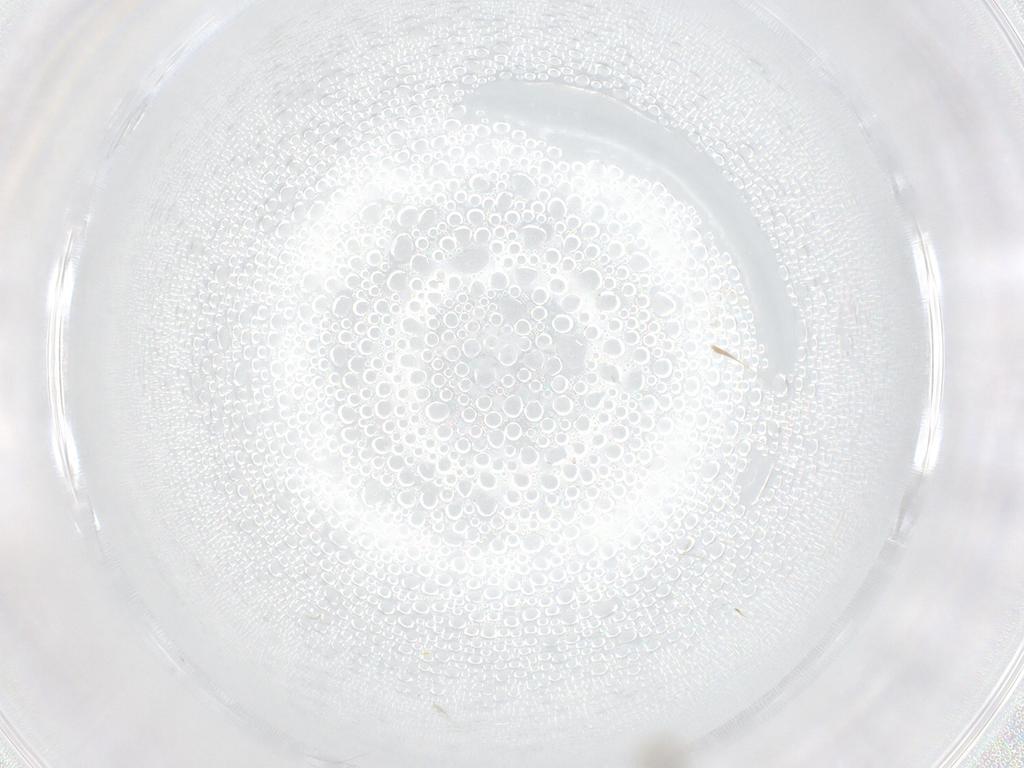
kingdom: Animalia
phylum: Arthropoda
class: Insecta
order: Diptera
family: Cecidomyiidae
